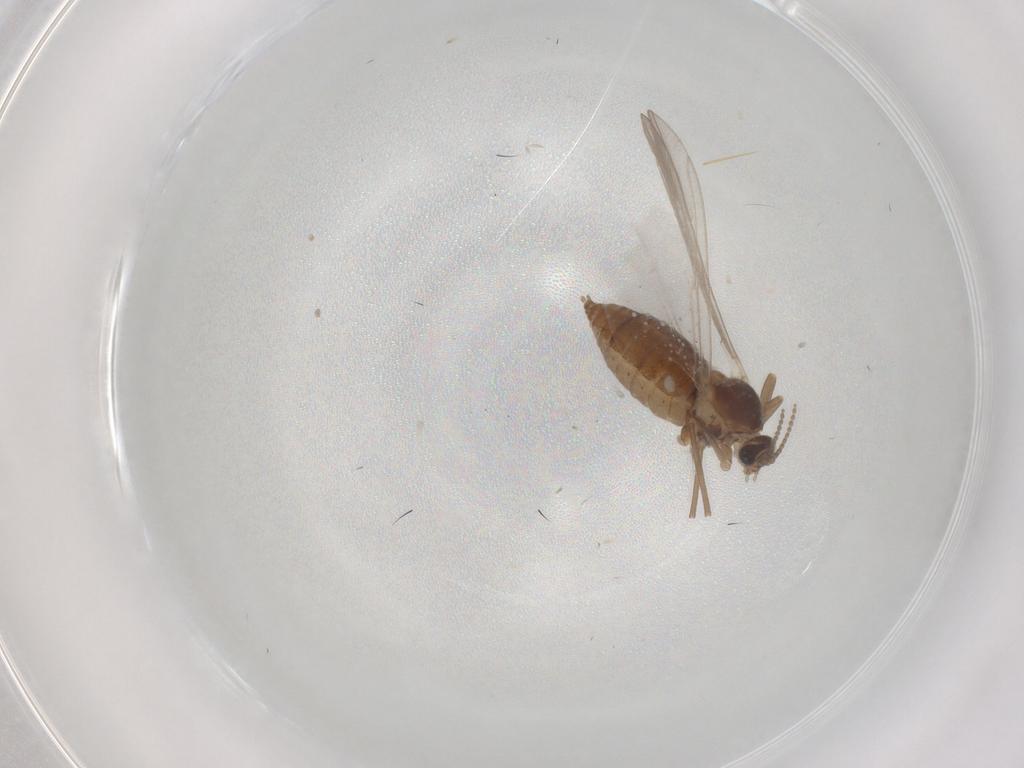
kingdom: Animalia
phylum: Arthropoda
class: Insecta
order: Diptera
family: Cecidomyiidae
